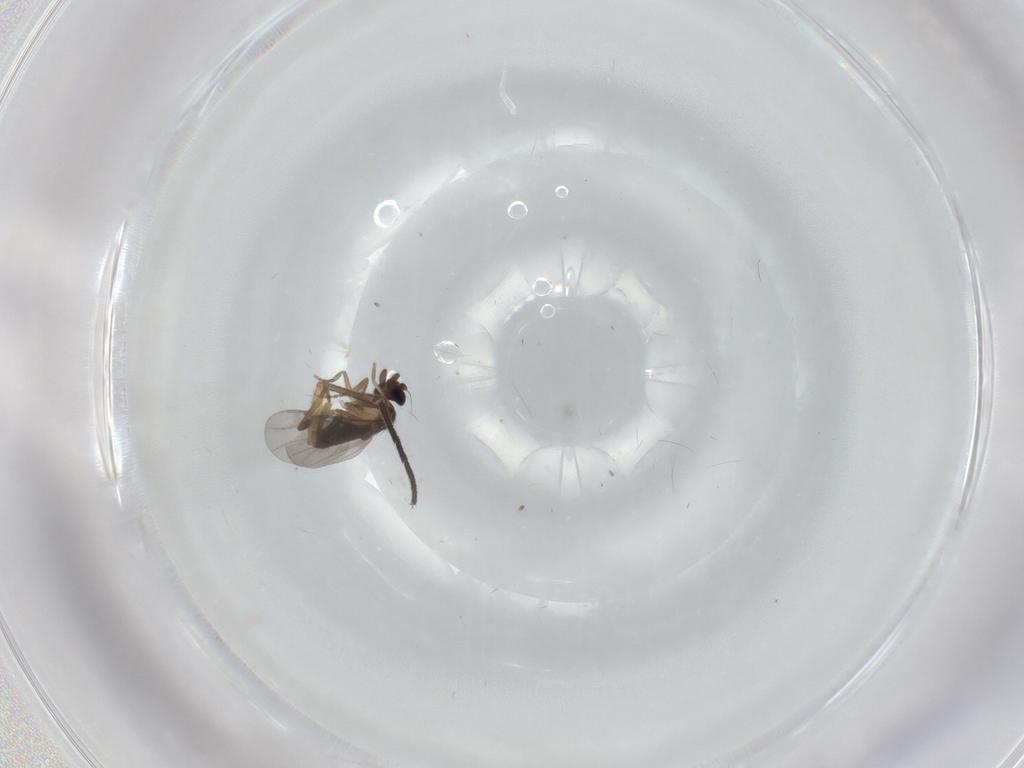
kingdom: Animalia
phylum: Arthropoda
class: Insecta
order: Diptera
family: Sciaridae
